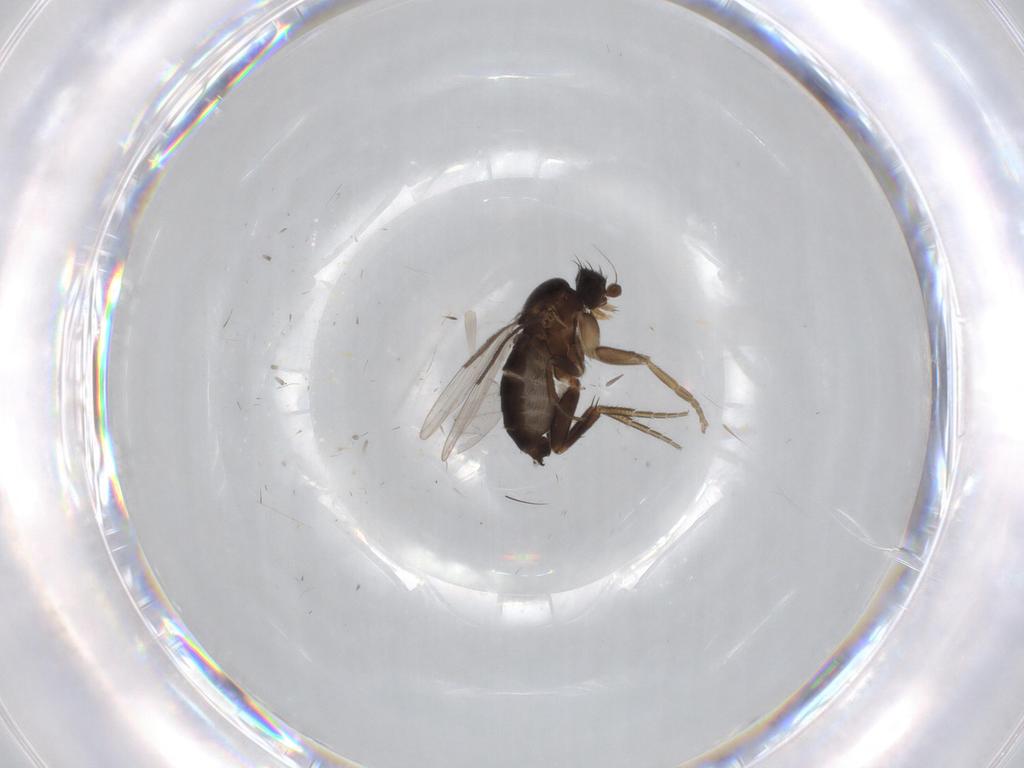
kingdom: Animalia
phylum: Arthropoda
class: Insecta
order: Diptera
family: Phoridae
